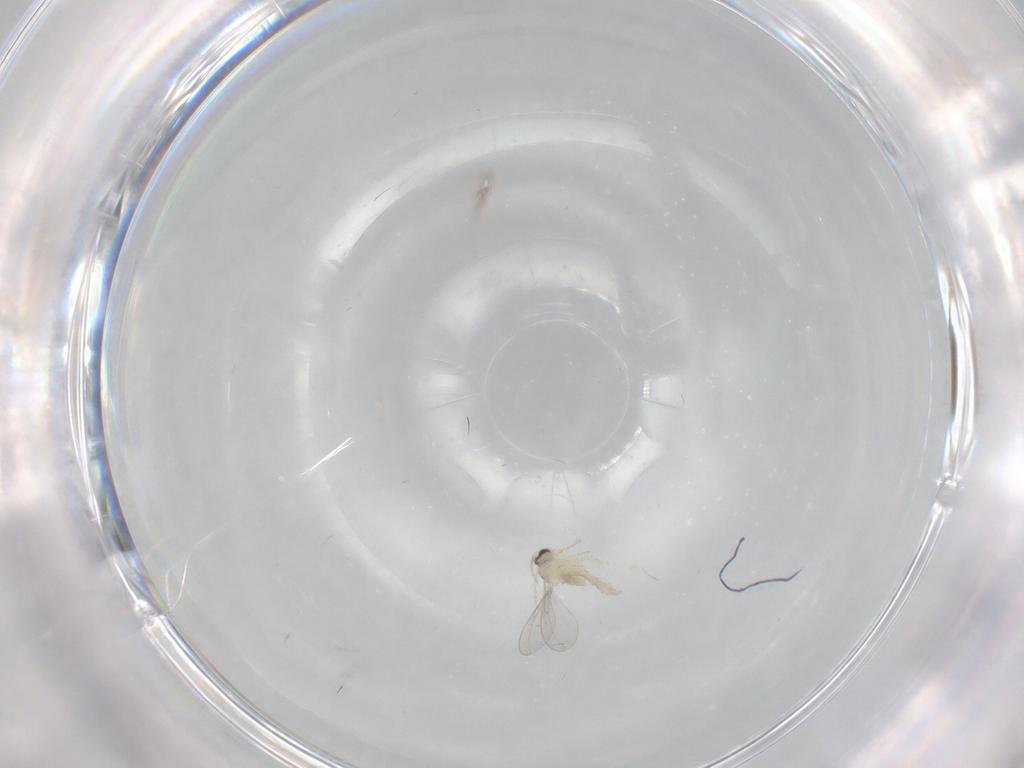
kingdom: Animalia
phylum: Arthropoda
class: Insecta
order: Diptera
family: Cecidomyiidae
